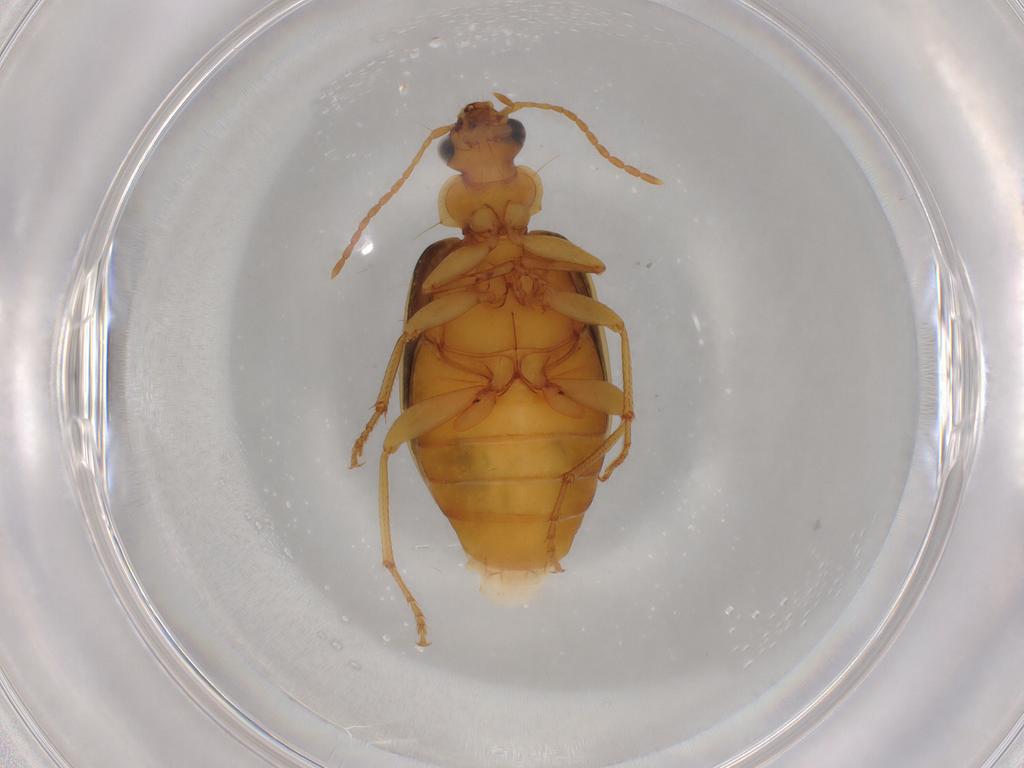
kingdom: Animalia
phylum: Arthropoda
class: Insecta
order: Coleoptera
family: Carabidae
